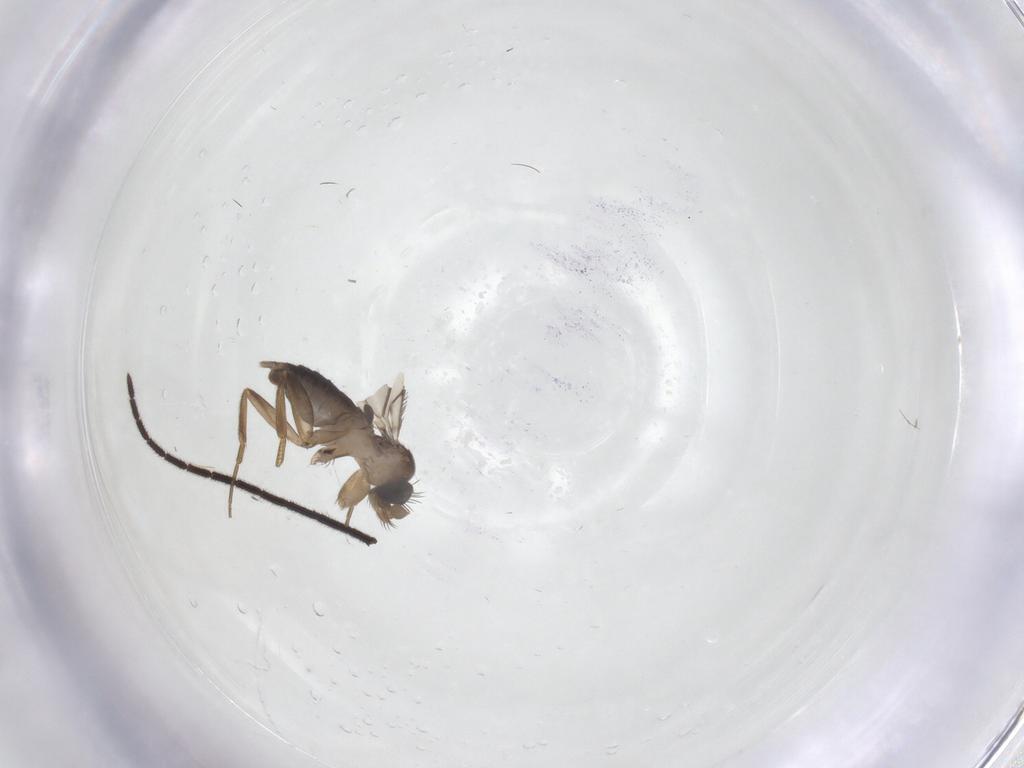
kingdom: Animalia
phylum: Arthropoda
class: Insecta
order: Diptera
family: Phoridae
